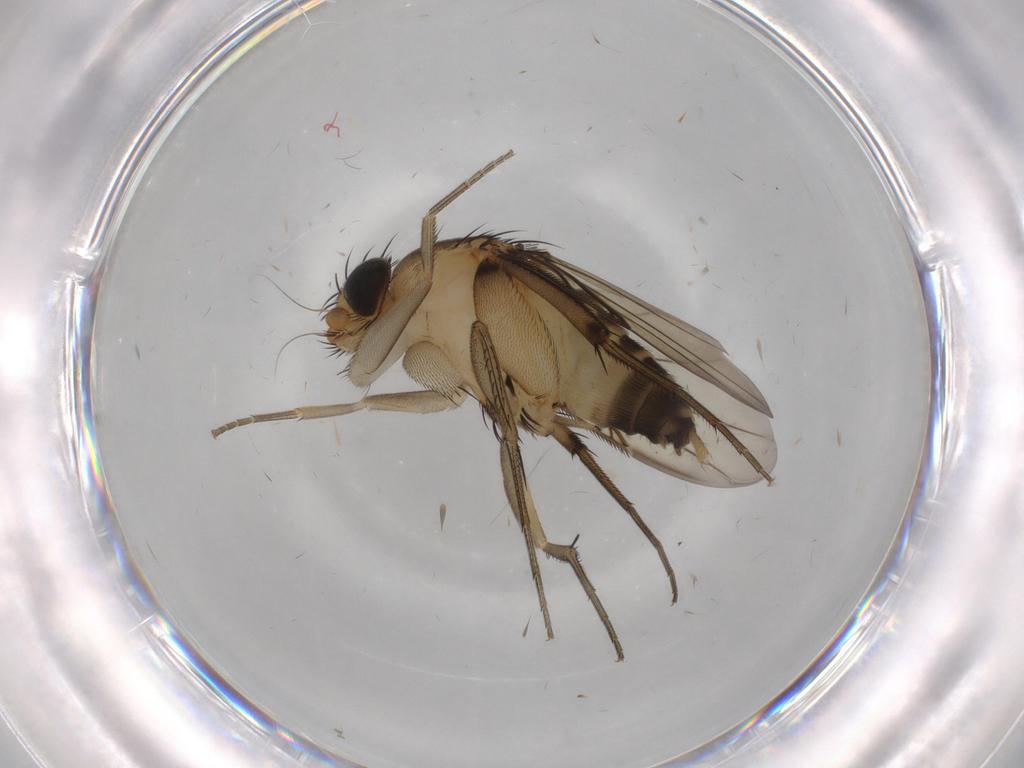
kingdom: Animalia
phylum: Arthropoda
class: Insecta
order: Diptera
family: Phoridae
